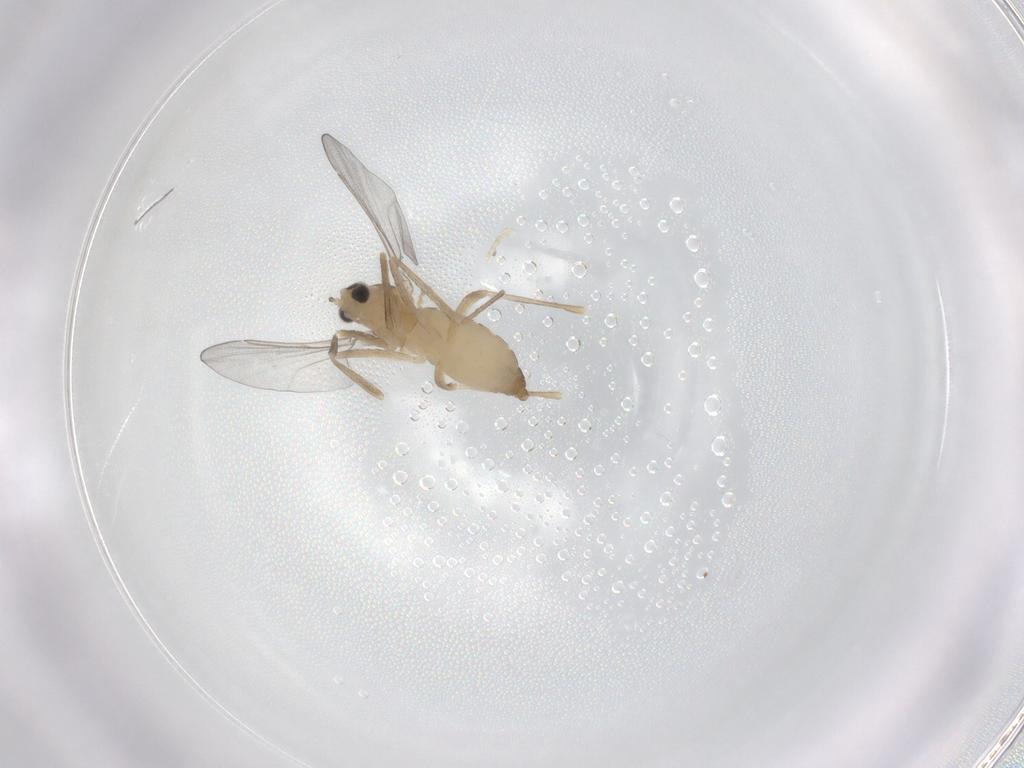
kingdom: Animalia
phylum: Arthropoda
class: Insecta
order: Diptera
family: Cecidomyiidae
